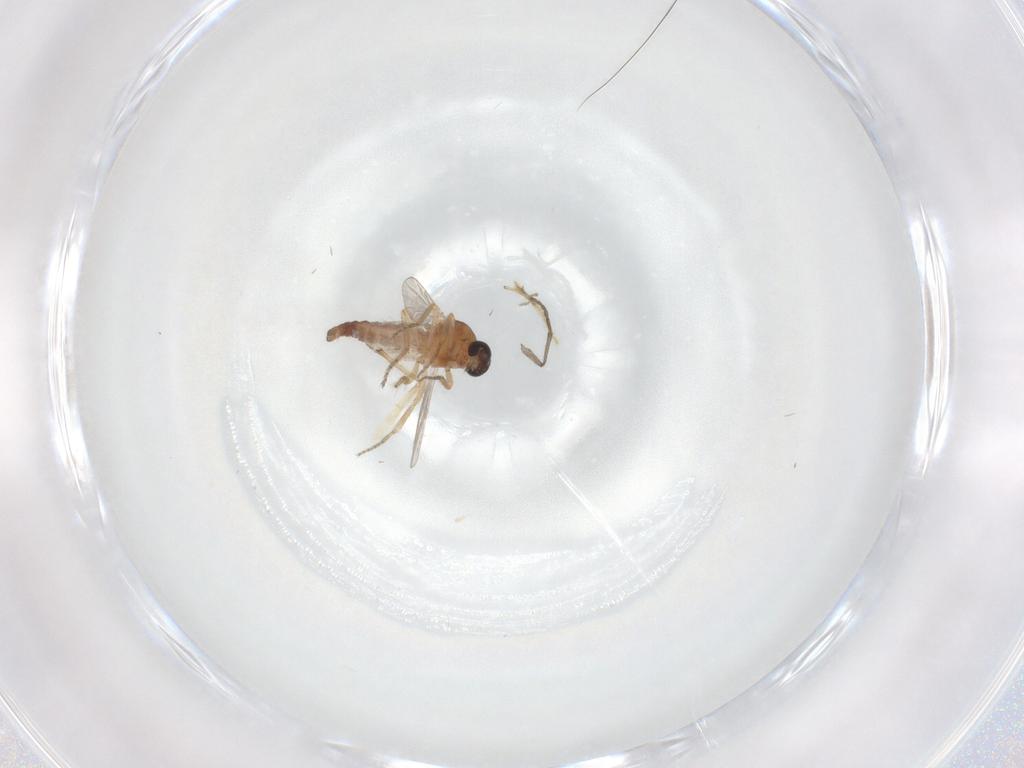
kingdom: Animalia
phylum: Arthropoda
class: Insecta
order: Diptera
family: Ceratopogonidae
